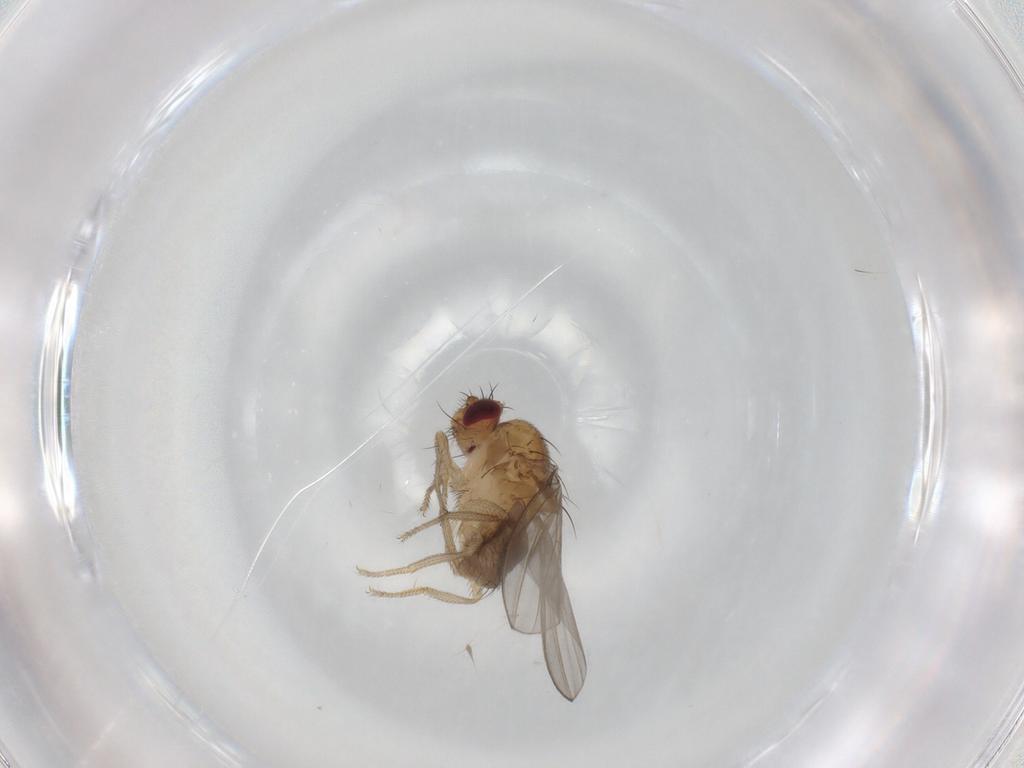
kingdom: Animalia
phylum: Arthropoda
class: Insecta
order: Diptera
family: Drosophilidae
